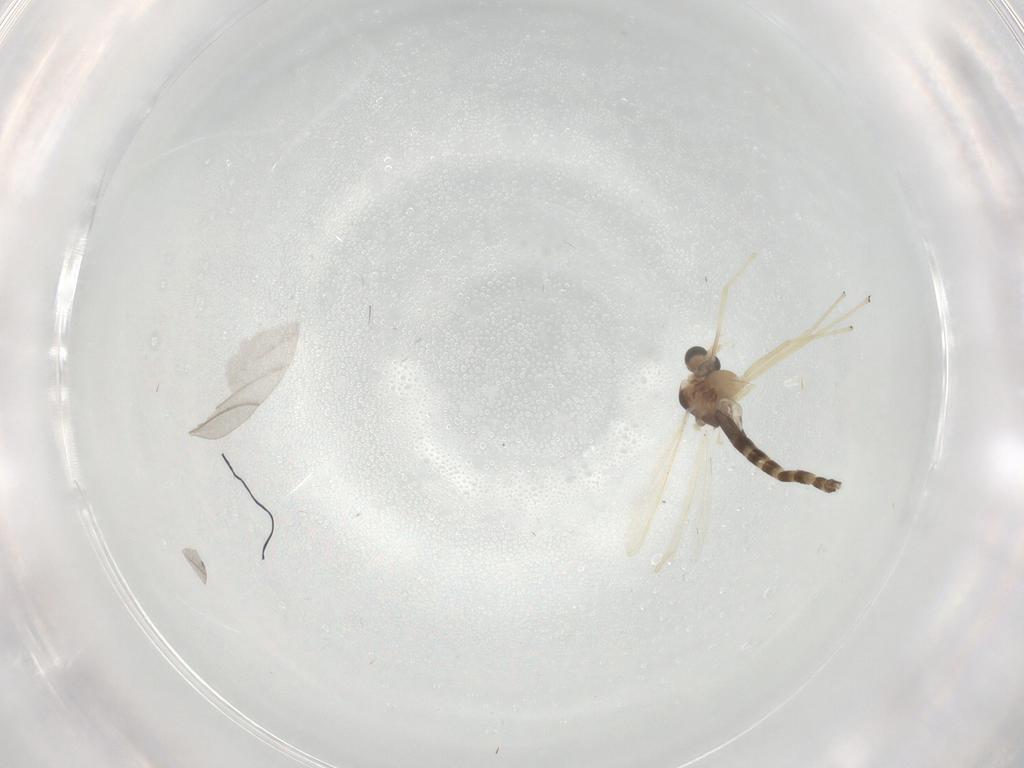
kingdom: Animalia
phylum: Arthropoda
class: Insecta
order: Diptera
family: Chironomidae
